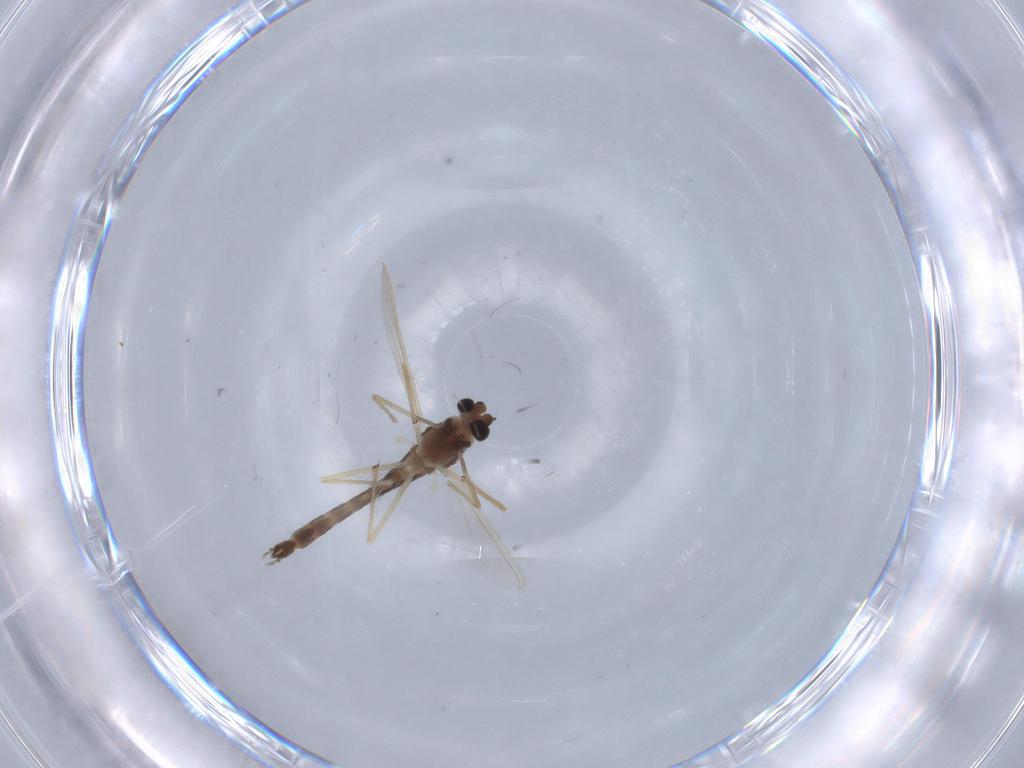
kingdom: Animalia
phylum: Arthropoda
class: Insecta
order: Diptera
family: Chironomidae
